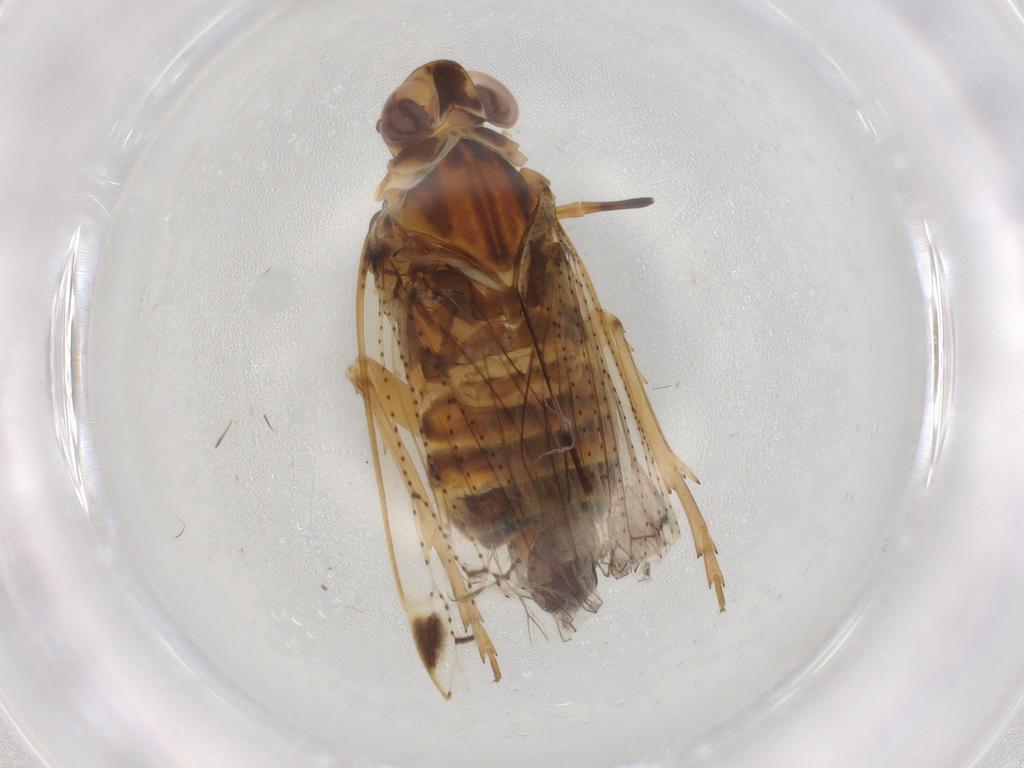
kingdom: Animalia
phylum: Arthropoda
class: Insecta
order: Hemiptera
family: Cixiidae
